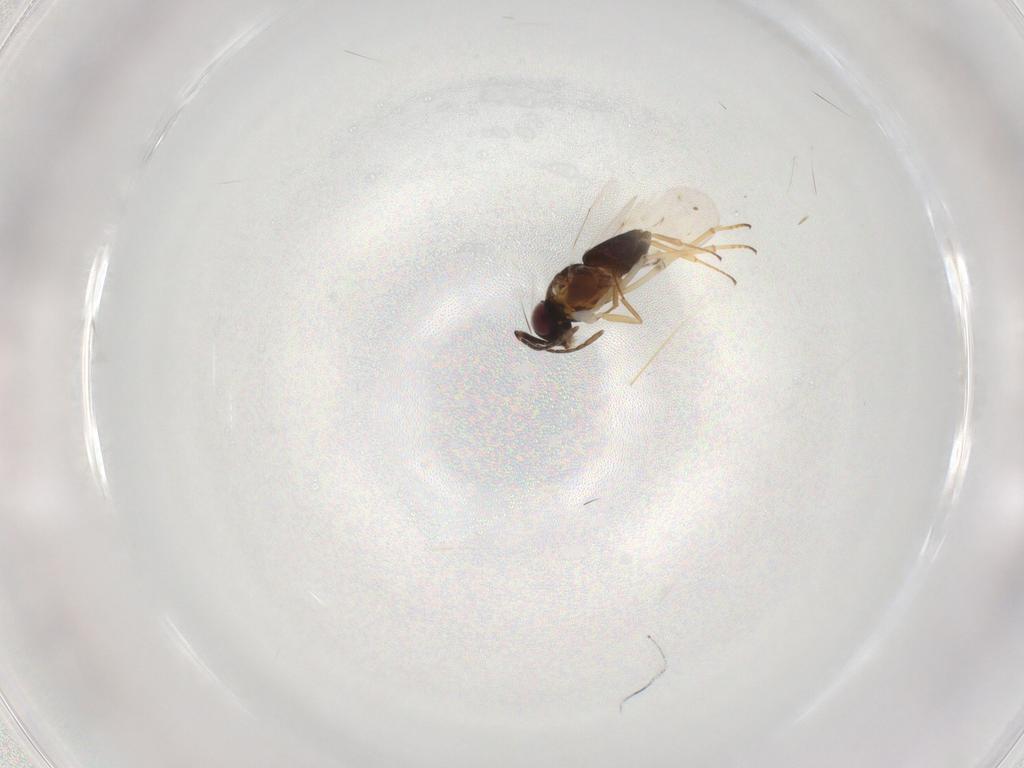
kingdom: Animalia
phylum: Arthropoda
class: Insecta
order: Hymenoptera
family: Encyrtidae
